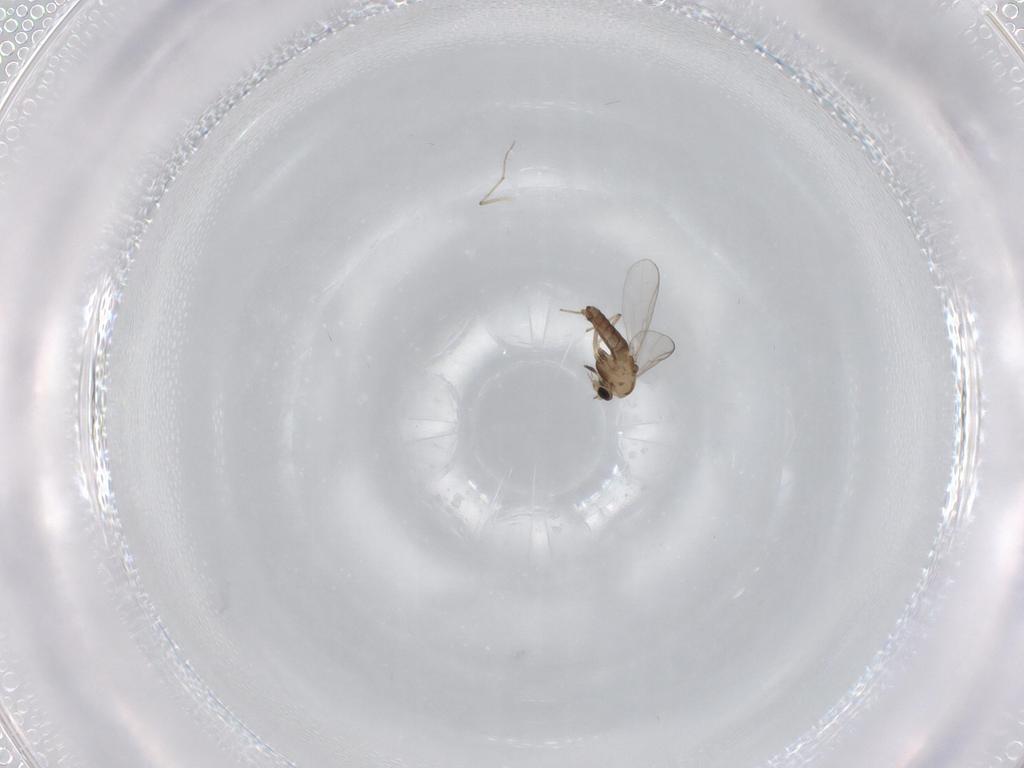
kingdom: Animalia
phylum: Arthropoda
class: Insecta
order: Diptera
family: Chironomidae
